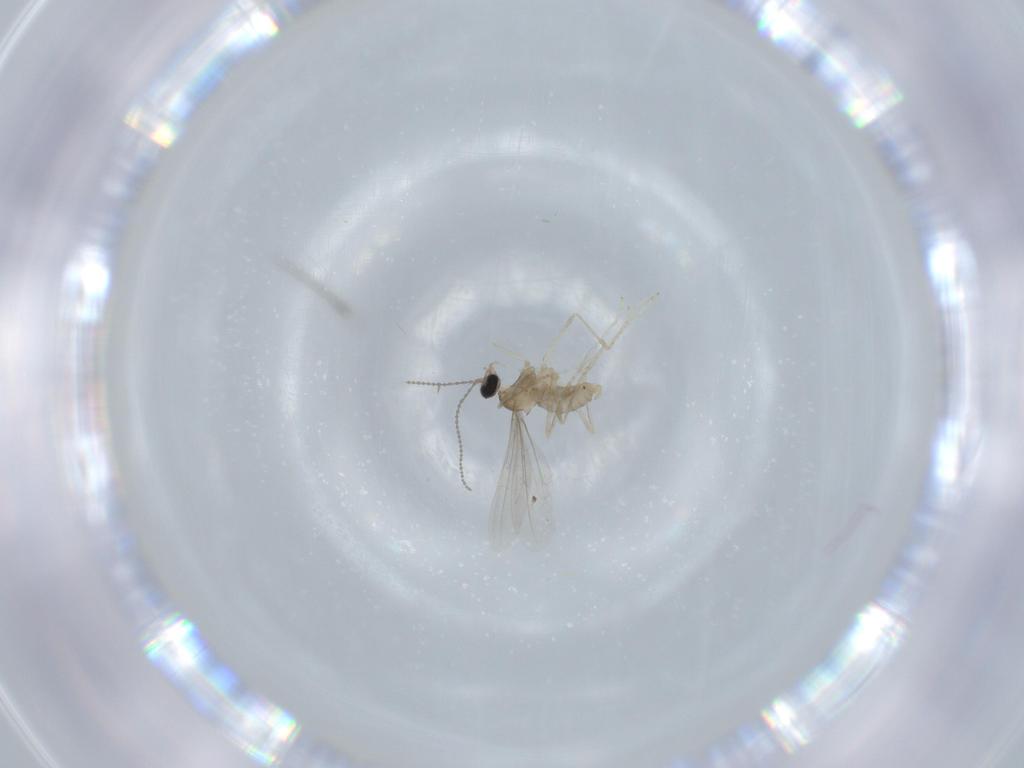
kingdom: Animalia
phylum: Arthropoda
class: Insecta
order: Diptera
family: Cecidomyiidae
